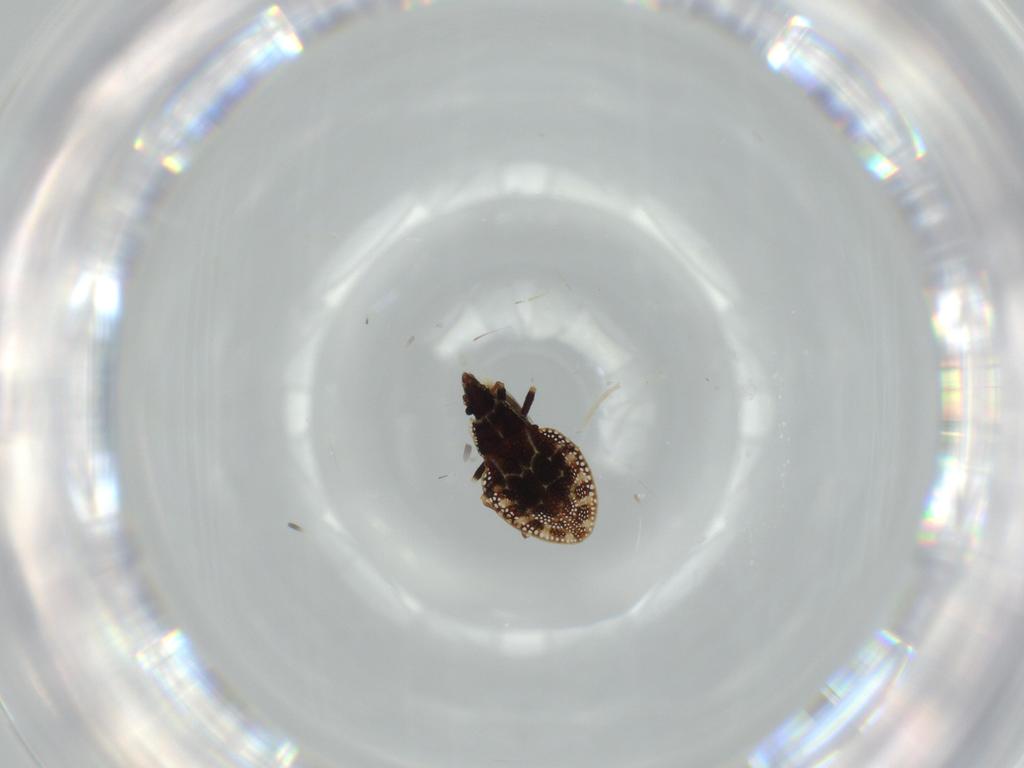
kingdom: Animalia
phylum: Arthropoda
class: Insecta
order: Hemiptera
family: Tingidae
